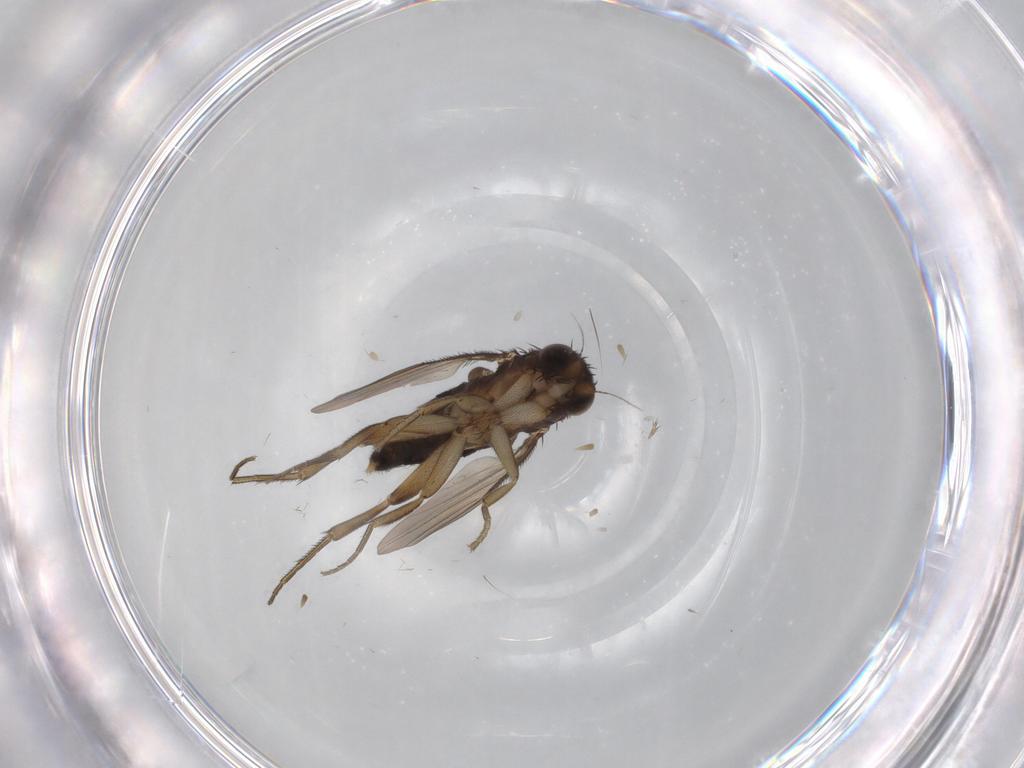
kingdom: Animalia
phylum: Arthropoda
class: Insecta
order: Diptera
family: Phoridae
